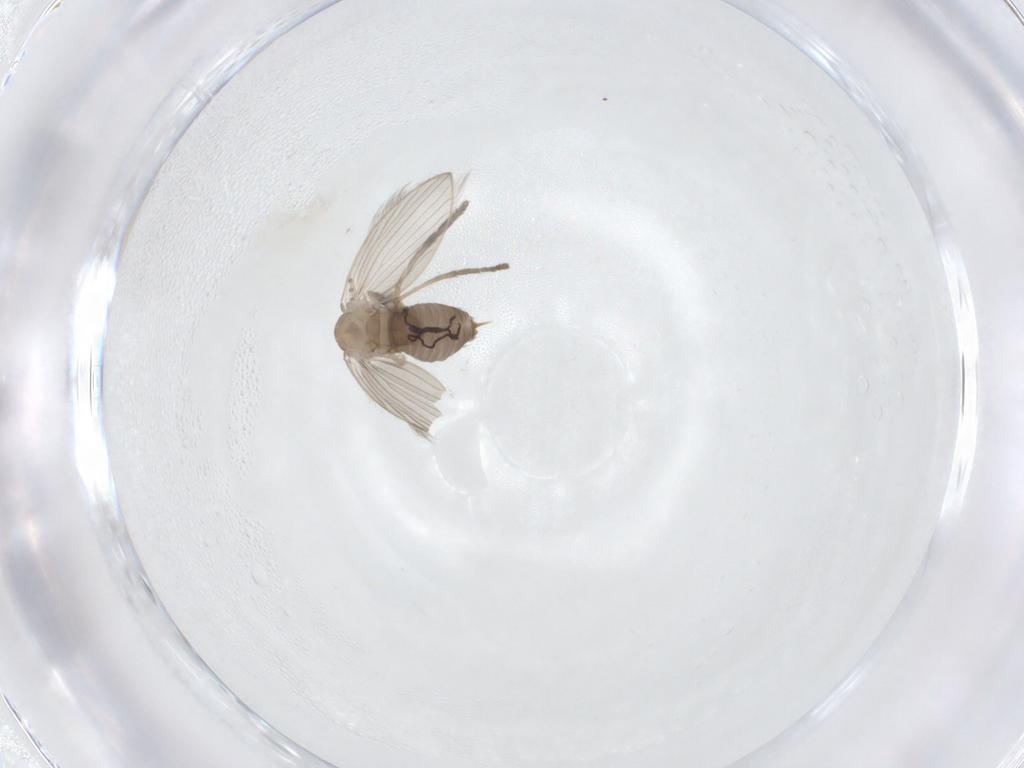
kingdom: Animalia
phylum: Arthropoda
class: Insecta
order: Diptera
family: Psychodidae
